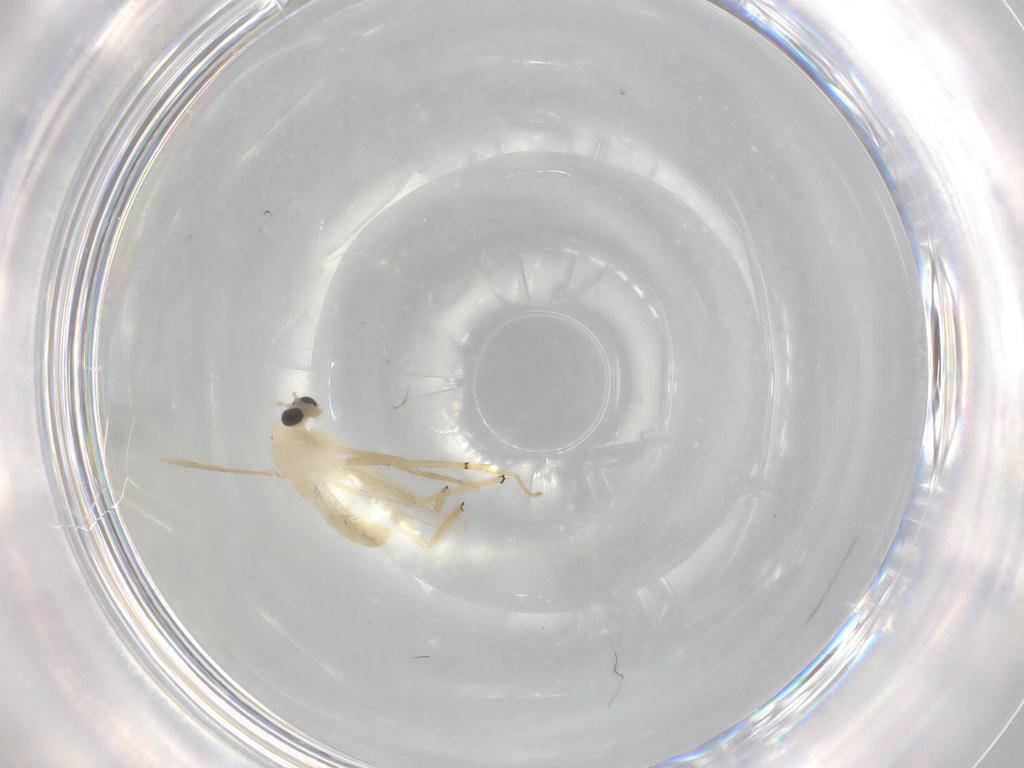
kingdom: Animalia
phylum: Arthropoda
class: Insecta
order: Diptera
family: Chironomidae
